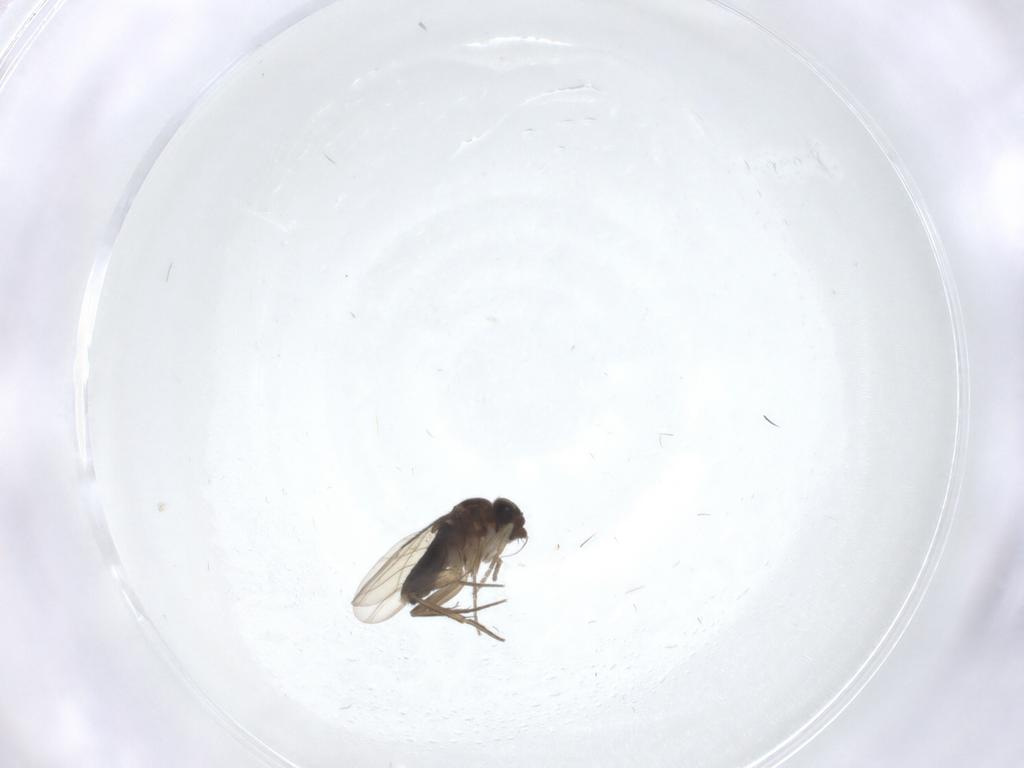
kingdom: Animalia
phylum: Arthropoda
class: Insecta
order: Diptera
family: Phoridae
